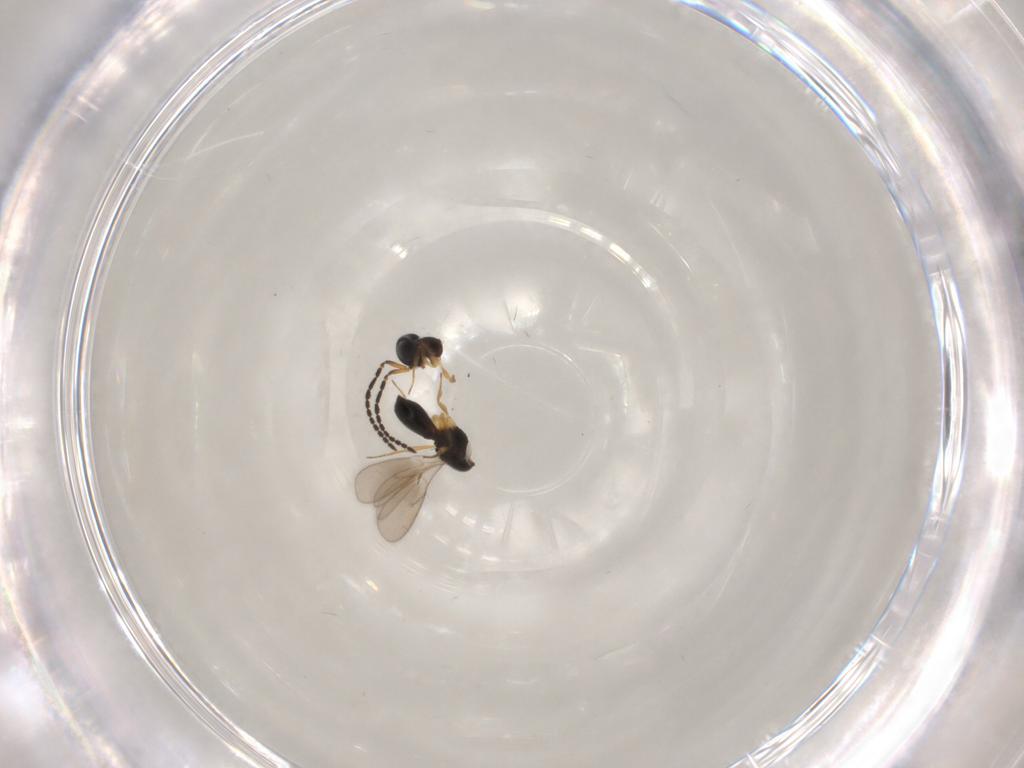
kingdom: Animalia
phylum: Arthropoda
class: Insecta
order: Hymenoptera
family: Scelionidae
